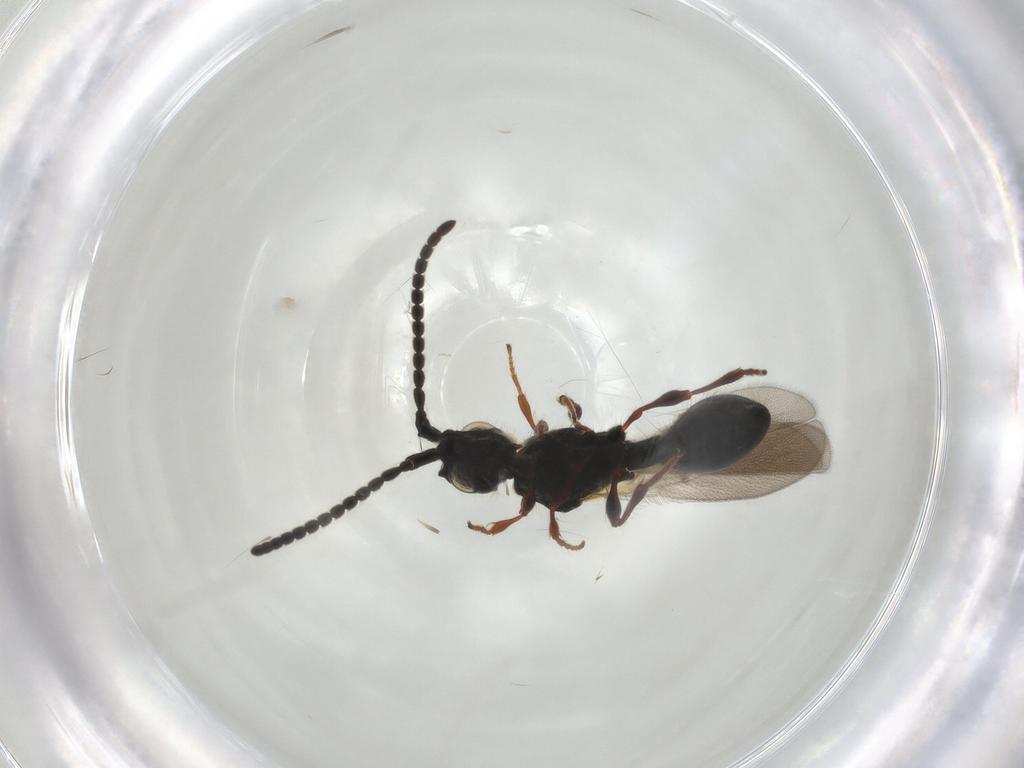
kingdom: Animalia
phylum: Arthropoda
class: Insecta
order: Hymenoptera
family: Diapriidae
